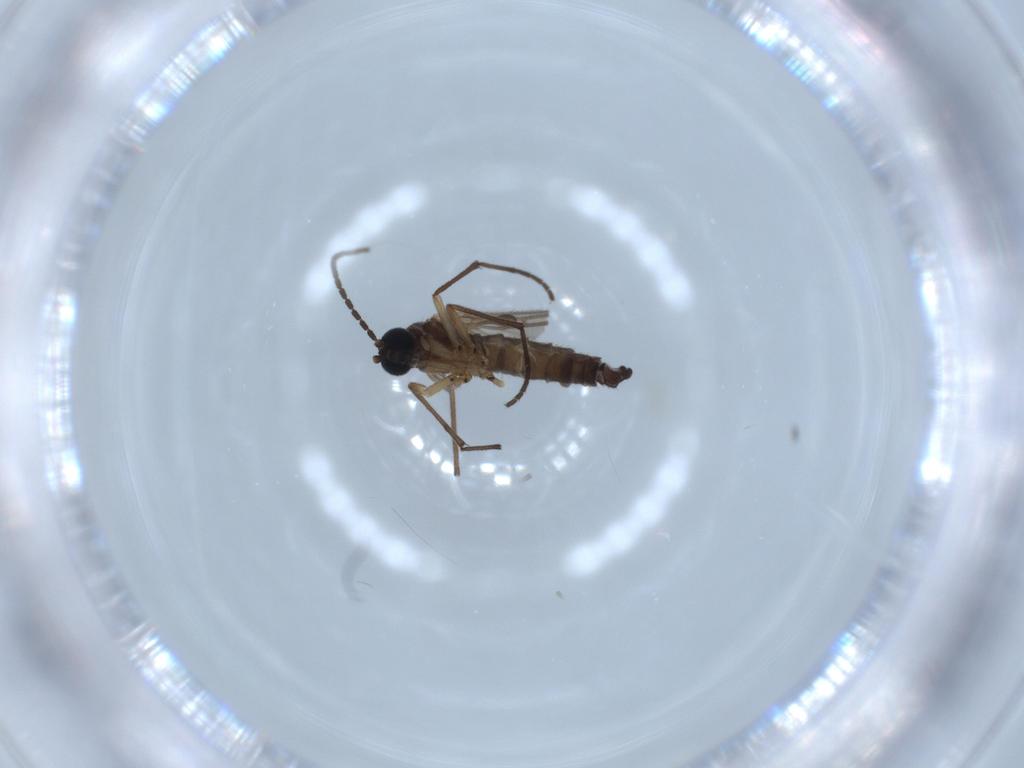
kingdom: Animalia
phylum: Arthropoda
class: Insecta
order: Diptera
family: Sciaridae
